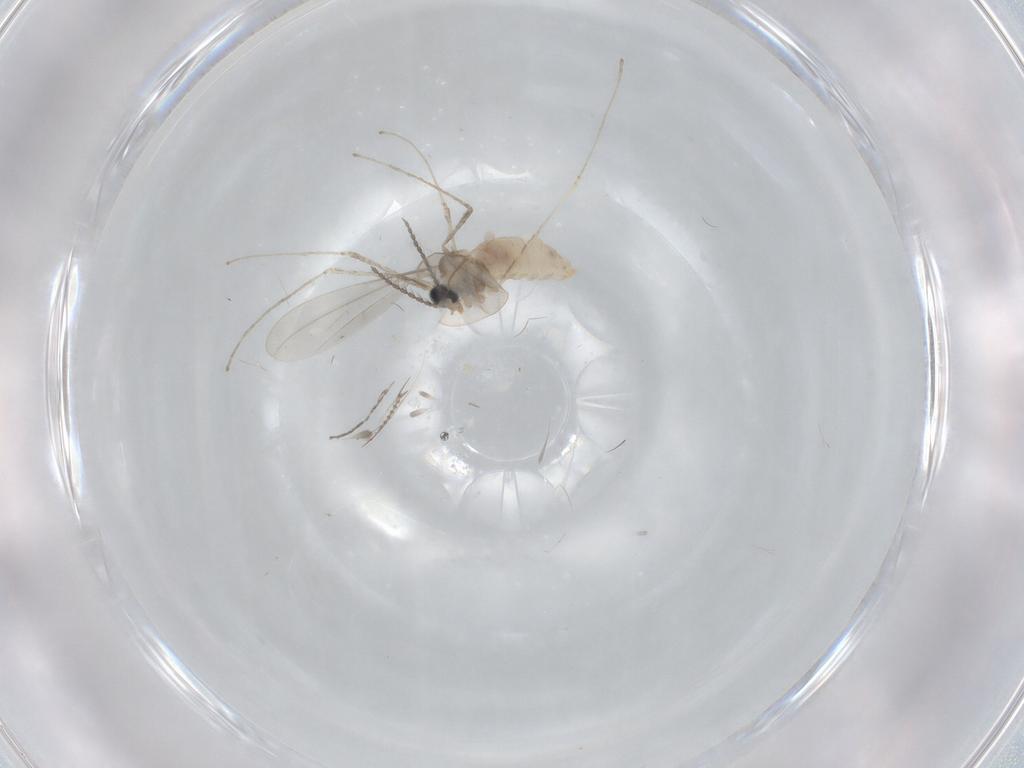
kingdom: Animalia
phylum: Arthropoda
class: Insecta
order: Diptera
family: Cecidomyiidae
